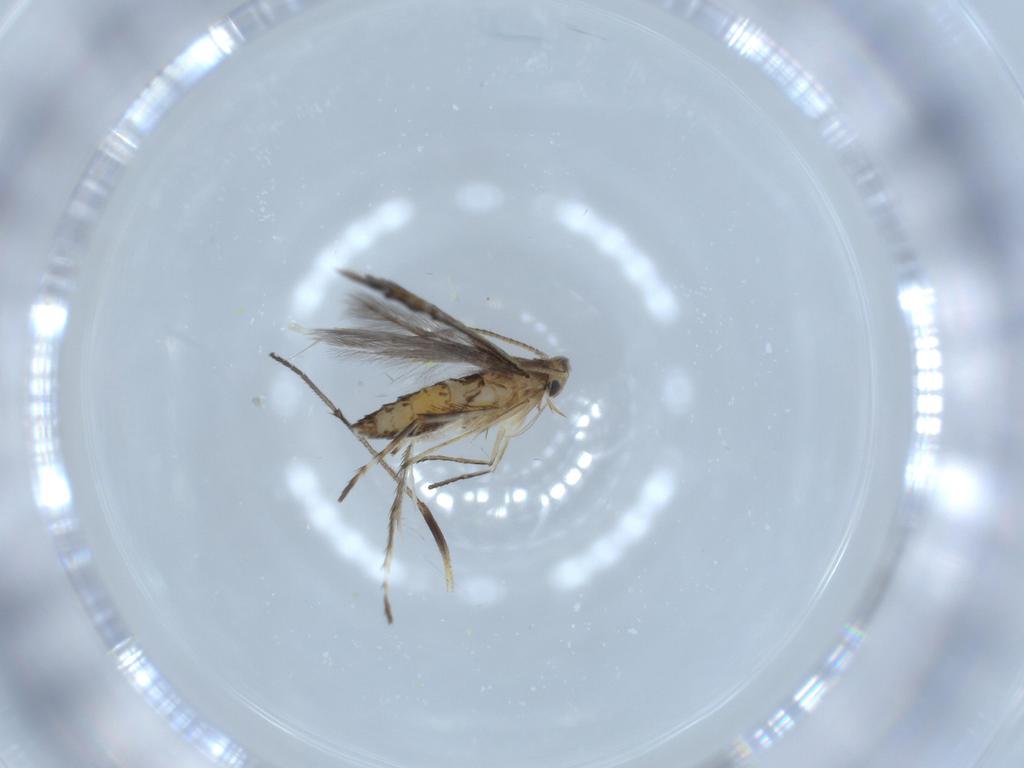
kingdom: Animalia
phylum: Arthropoda
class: Insecta
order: Lepidoptera
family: Nepticulidae
